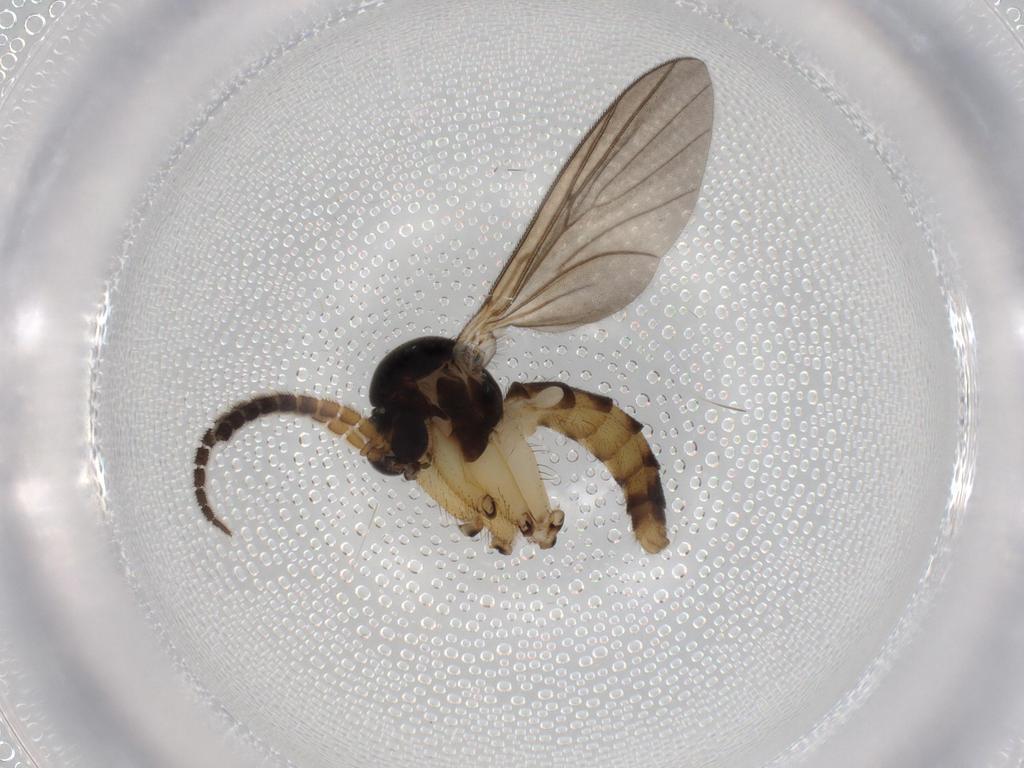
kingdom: Animalia
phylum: Arthropoda
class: Insecta
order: Diptera
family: Sciaridae
